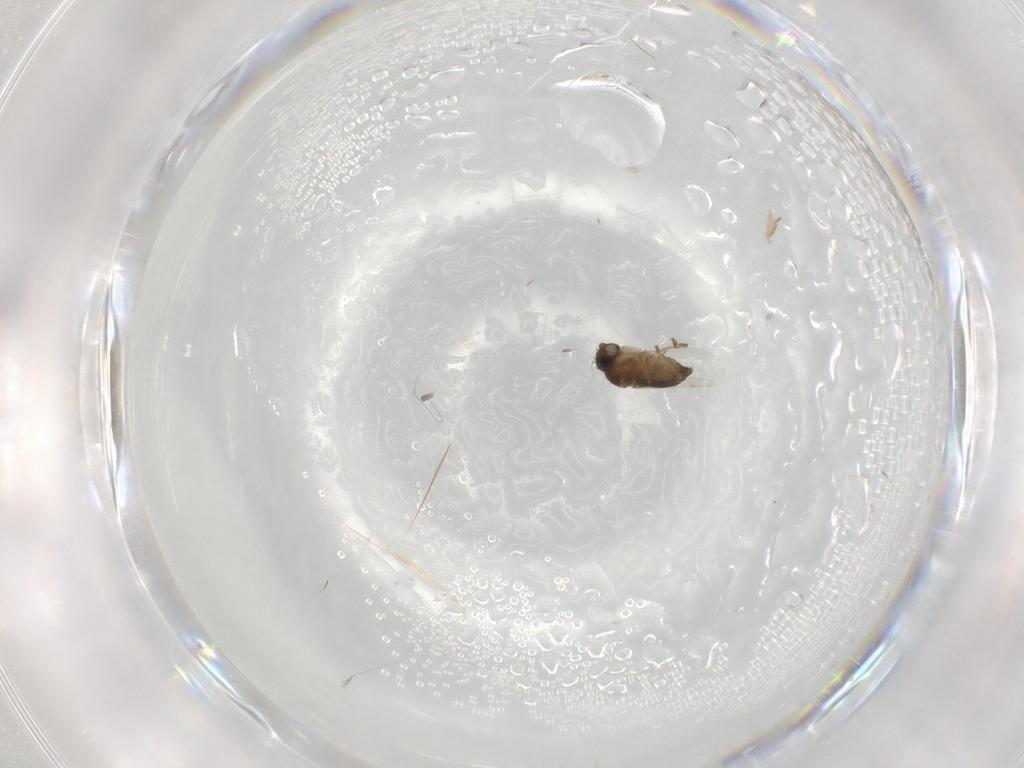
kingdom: Animalia
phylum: Arthropoda
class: Insecta
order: Diptera
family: Phoridae
